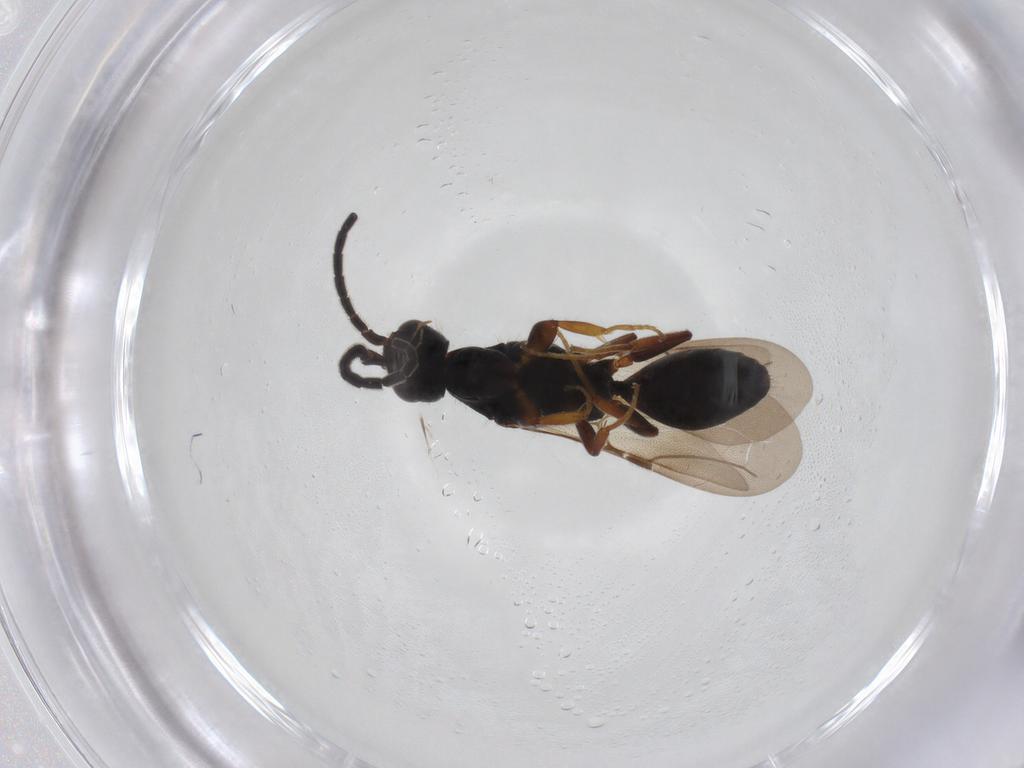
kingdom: Animalia
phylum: Arthropoda
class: Insecta
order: Hymenoptera
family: Bethylidae
